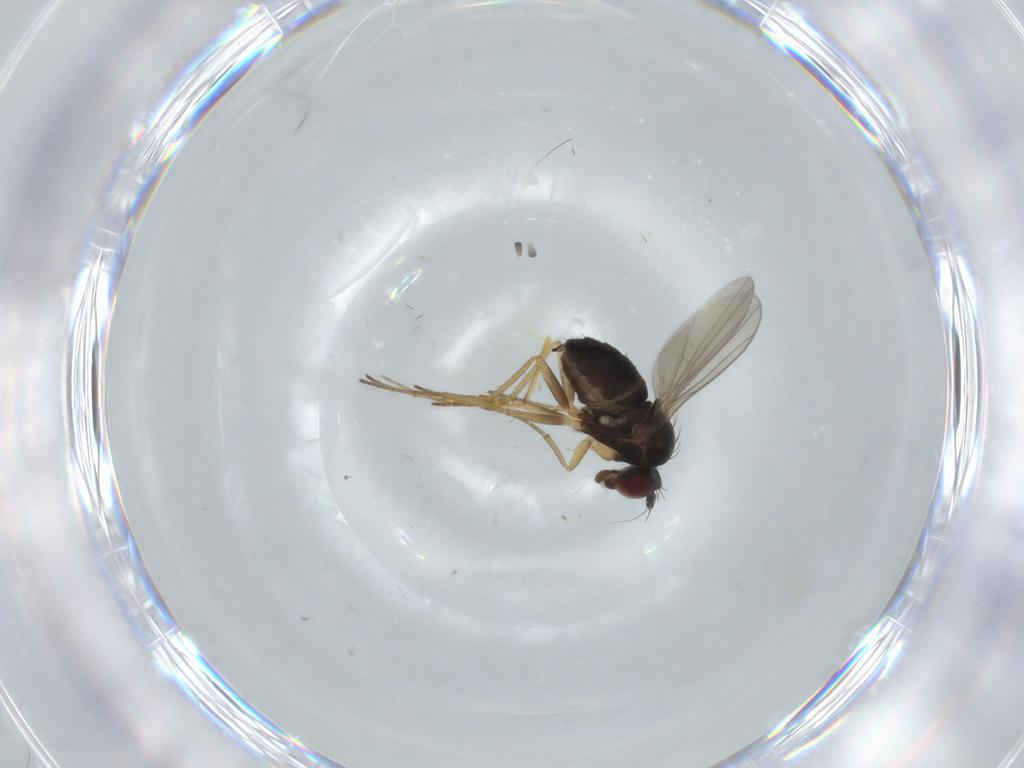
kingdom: Animalia
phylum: Arthropoda
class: Insecta
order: Diptera
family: Dolichopodidae
